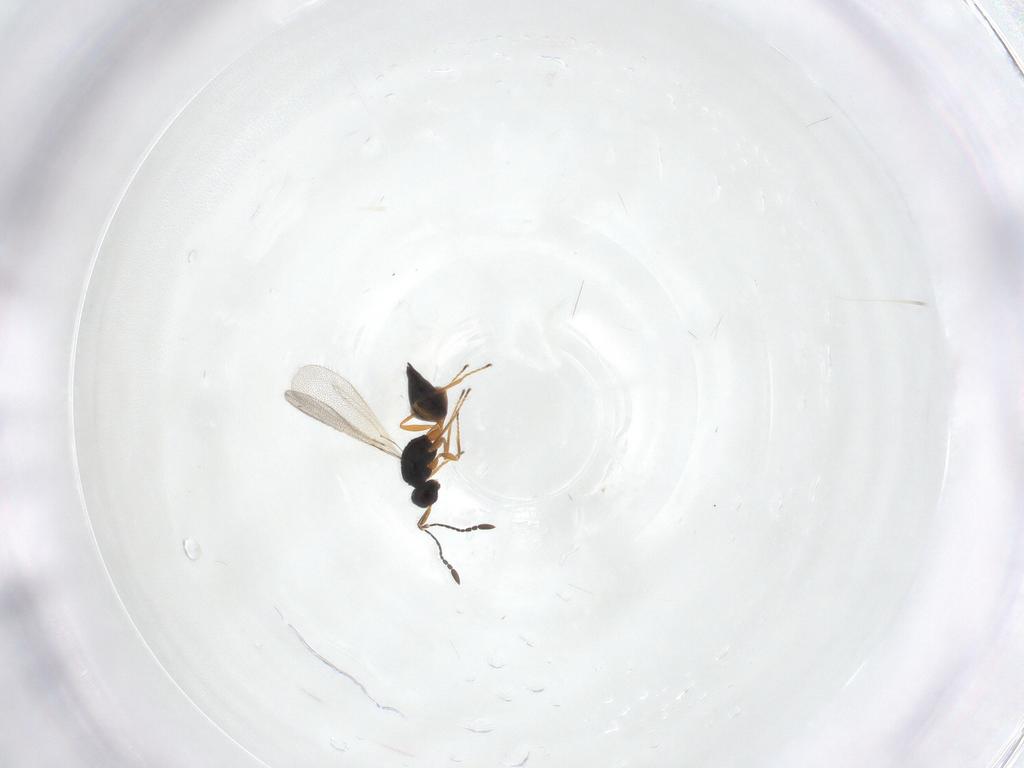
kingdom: Animalia
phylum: Arthropoda
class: Insecta
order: Hymenoptera
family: Mymaridae
